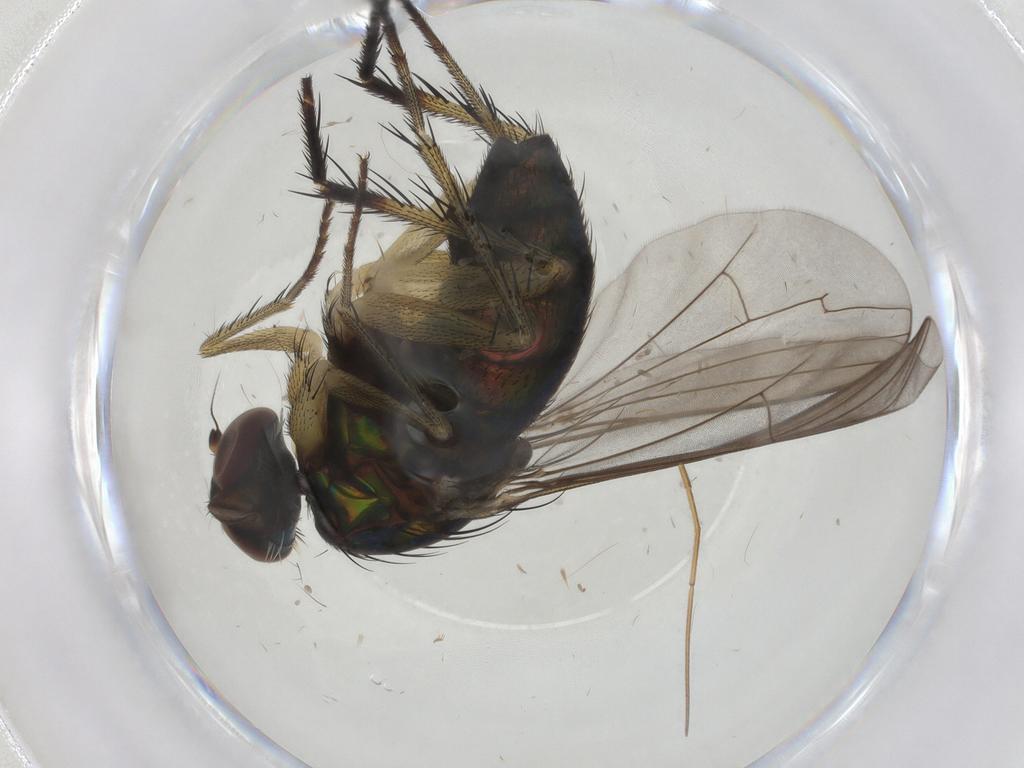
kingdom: Animalia
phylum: Arthropoda
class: Insecta
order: Diptera
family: Dolichopodidae
